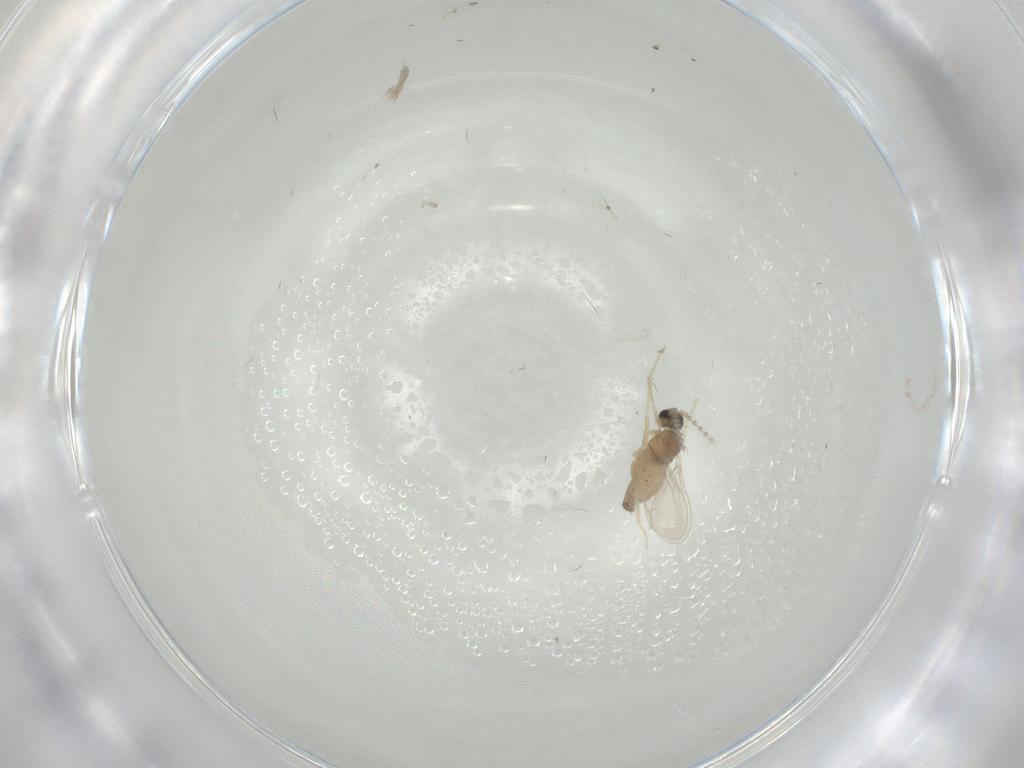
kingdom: Animalia
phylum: Arthropoda
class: Insecta
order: Diptera
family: Cecidomyiidae
